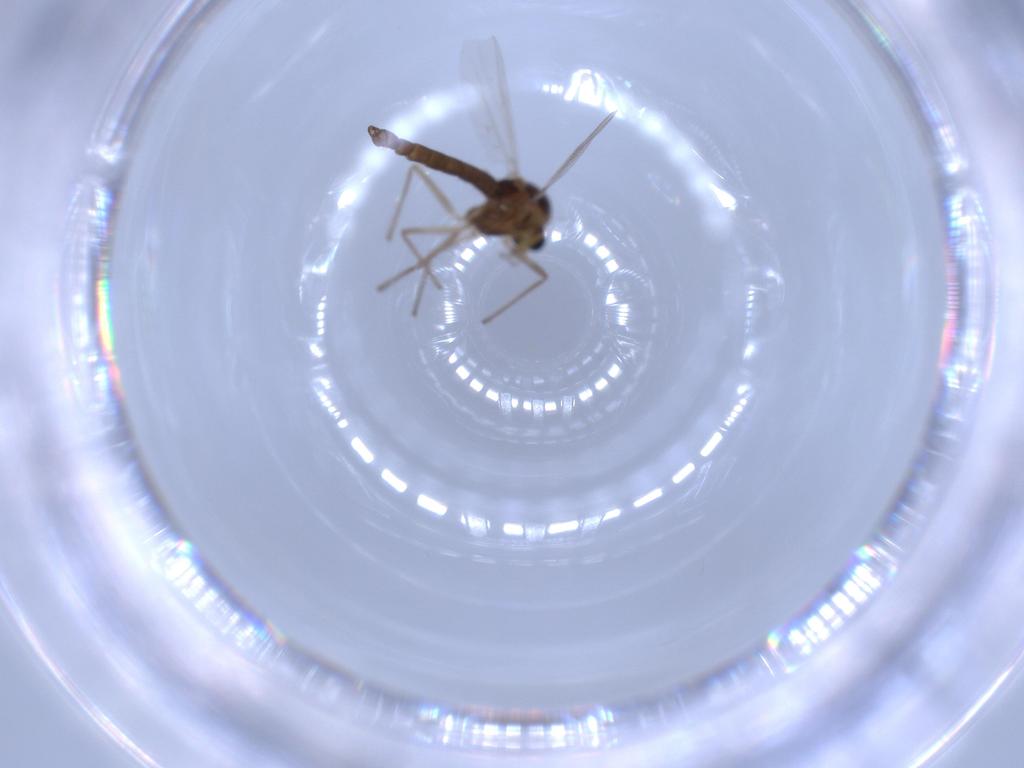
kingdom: Animalia
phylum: Arthropoda
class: Insecta
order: Diptera
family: Chironomidae
